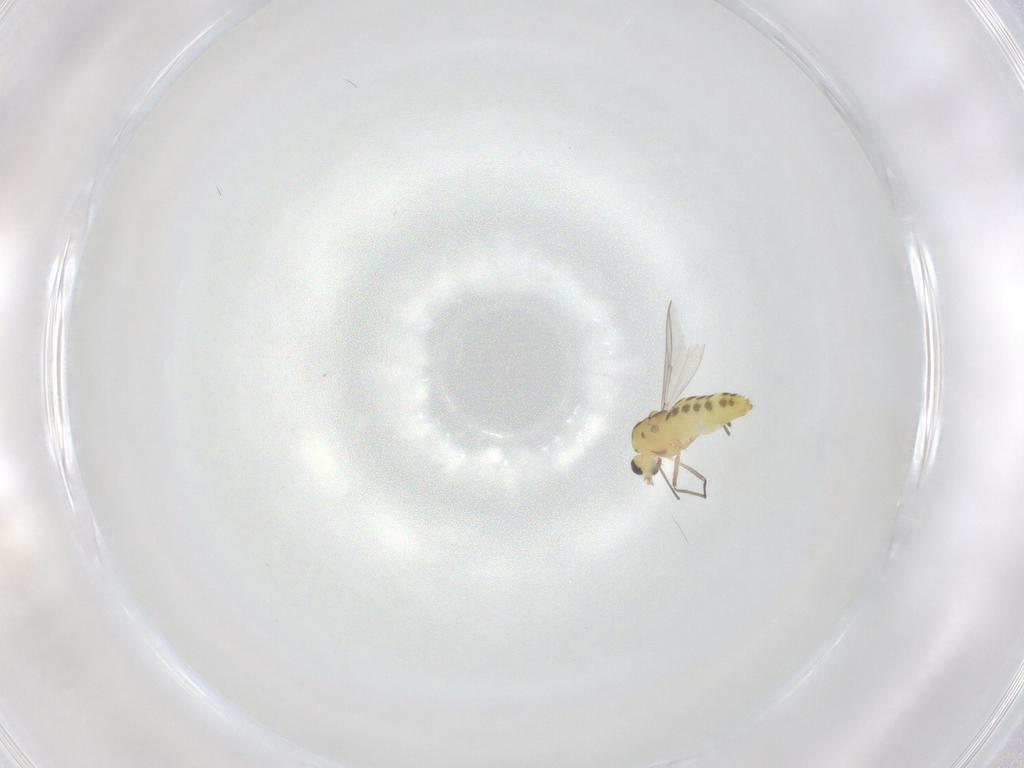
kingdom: Animalia
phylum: Arthropoda
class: Insecta
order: Diptera
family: Chironomidae
